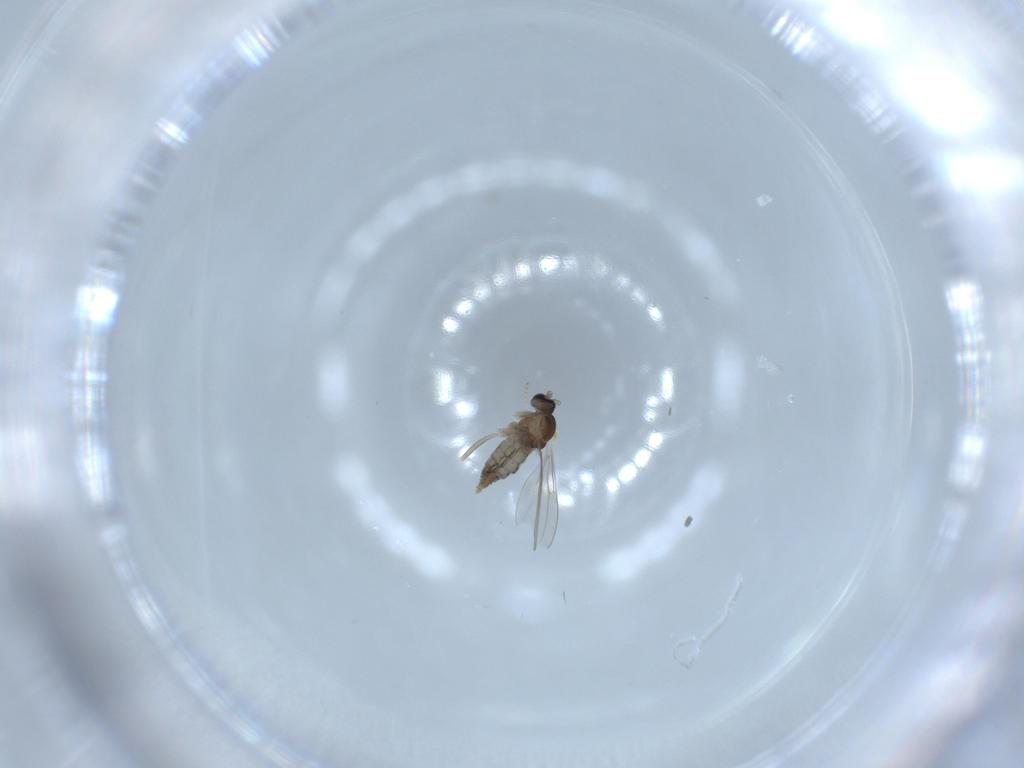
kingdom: Animalia
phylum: Arthropoda
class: Insecta
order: Diptera
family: Cecidomyiidae
